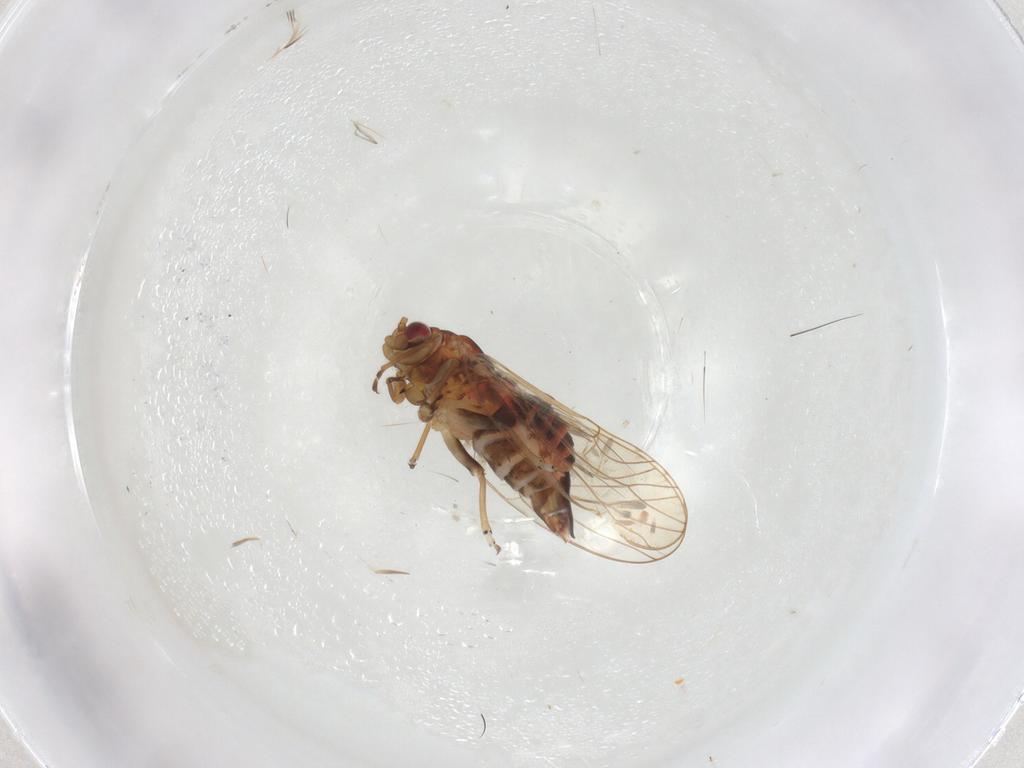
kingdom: Animalia
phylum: Arthropoda
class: Insecta
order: Hemiptera
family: Psyllidae
